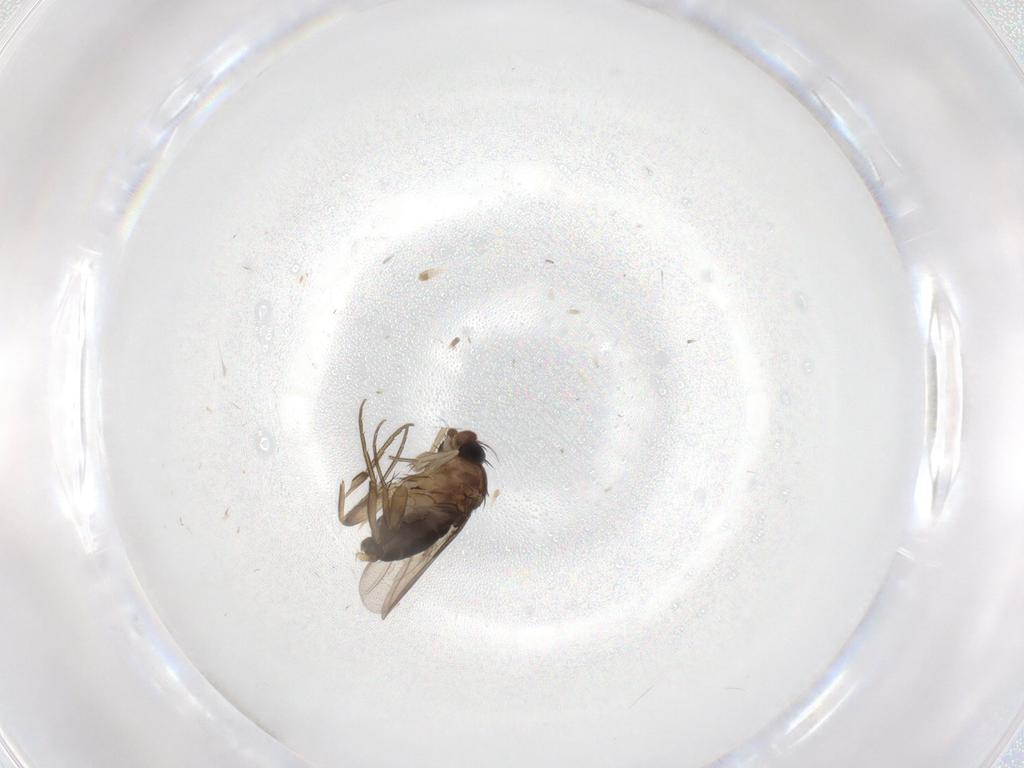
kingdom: Animalia
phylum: Arthropoda
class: Insecta
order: Diptera
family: Phoridae
